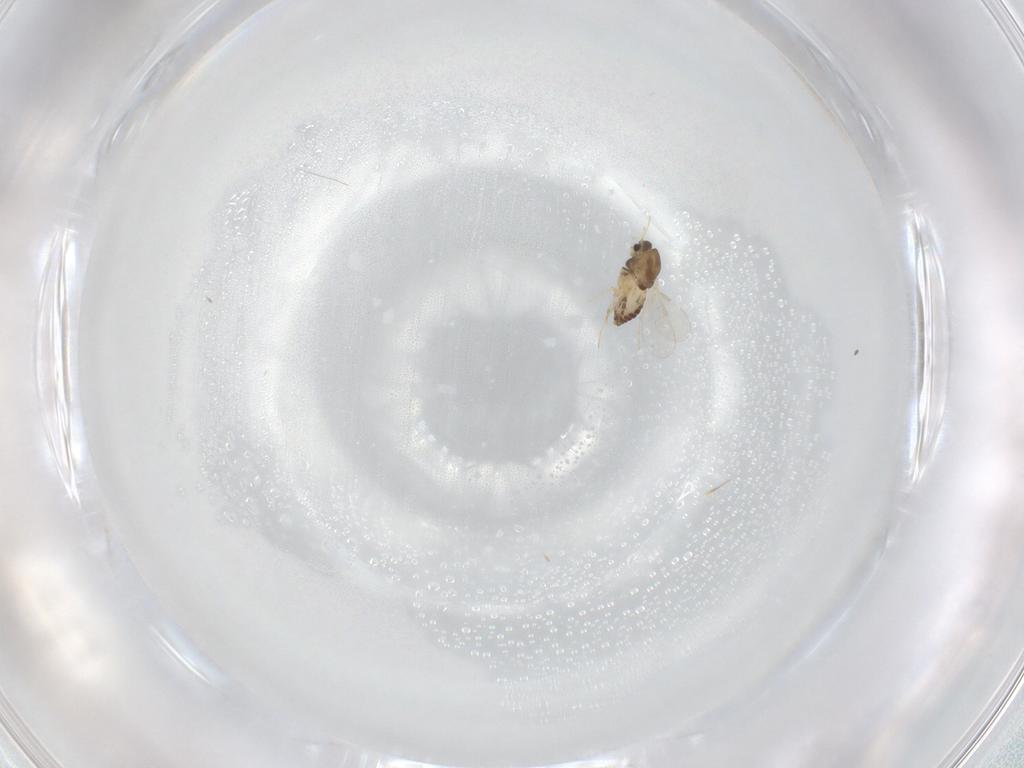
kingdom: Animalia
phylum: Arthropoda
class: Insecta
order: Diptera
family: Chironomidae
